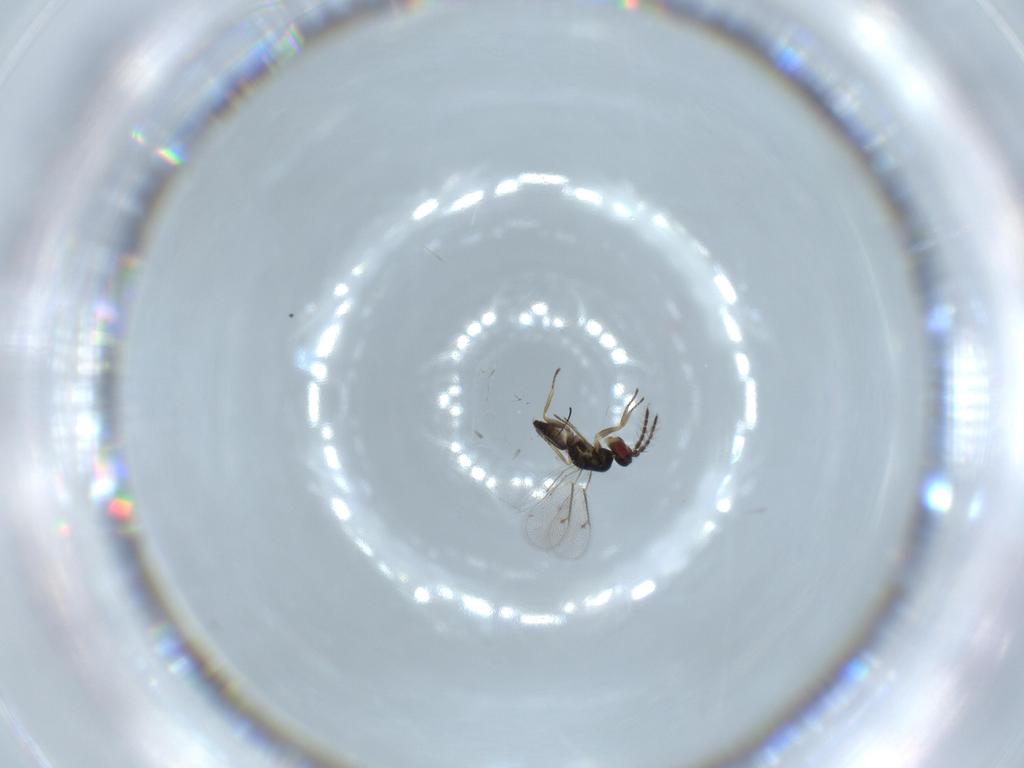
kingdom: Animalia
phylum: Arthropoda
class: Insecta
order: Hymenoptera
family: Eulophidae
